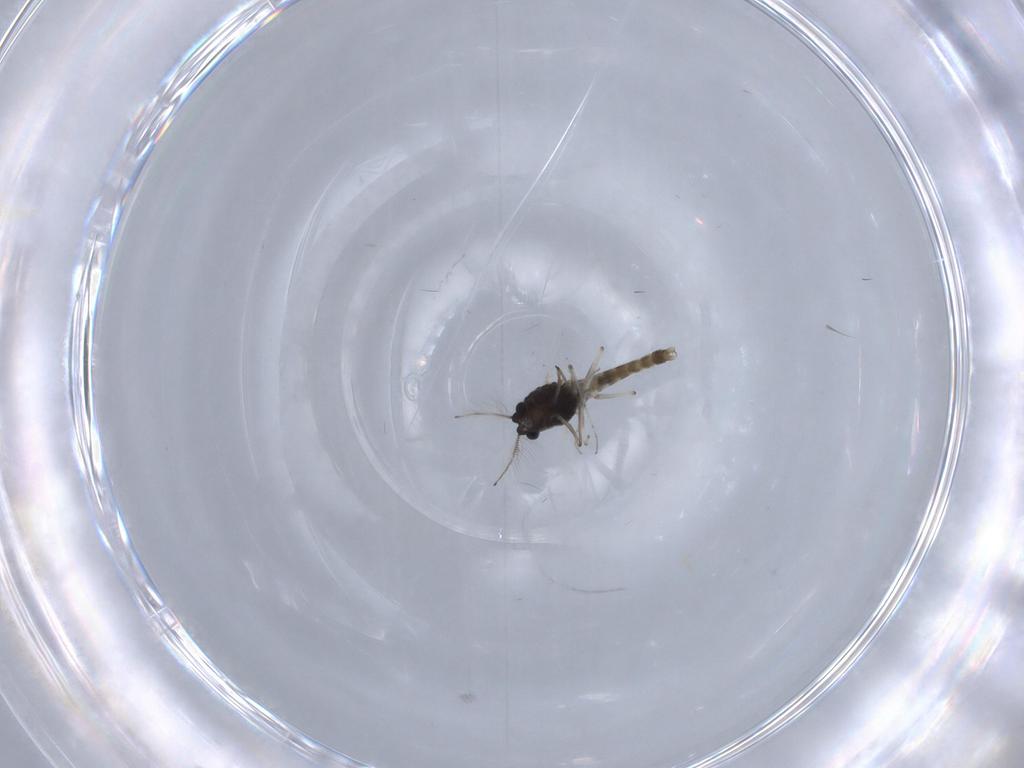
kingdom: Animalia
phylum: Arthropoda
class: Insecta
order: Diptera
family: Chironomidae
